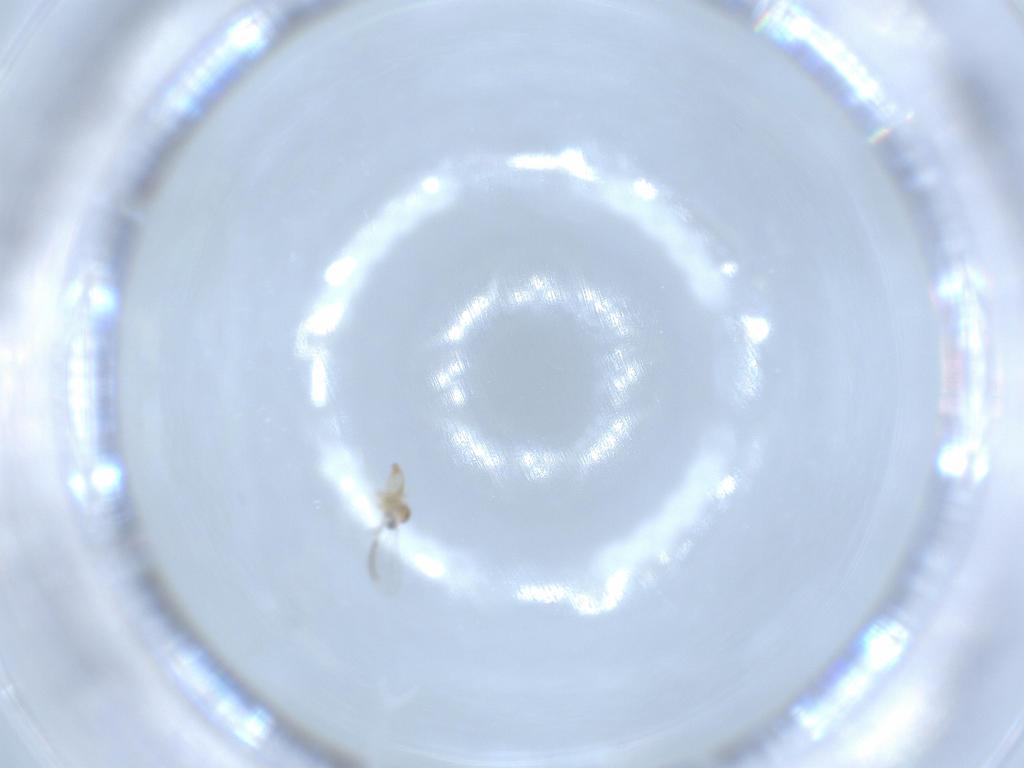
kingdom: Animalia
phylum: Arthropoda
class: Insecta
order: Diptera
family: Cecidomyiidae
